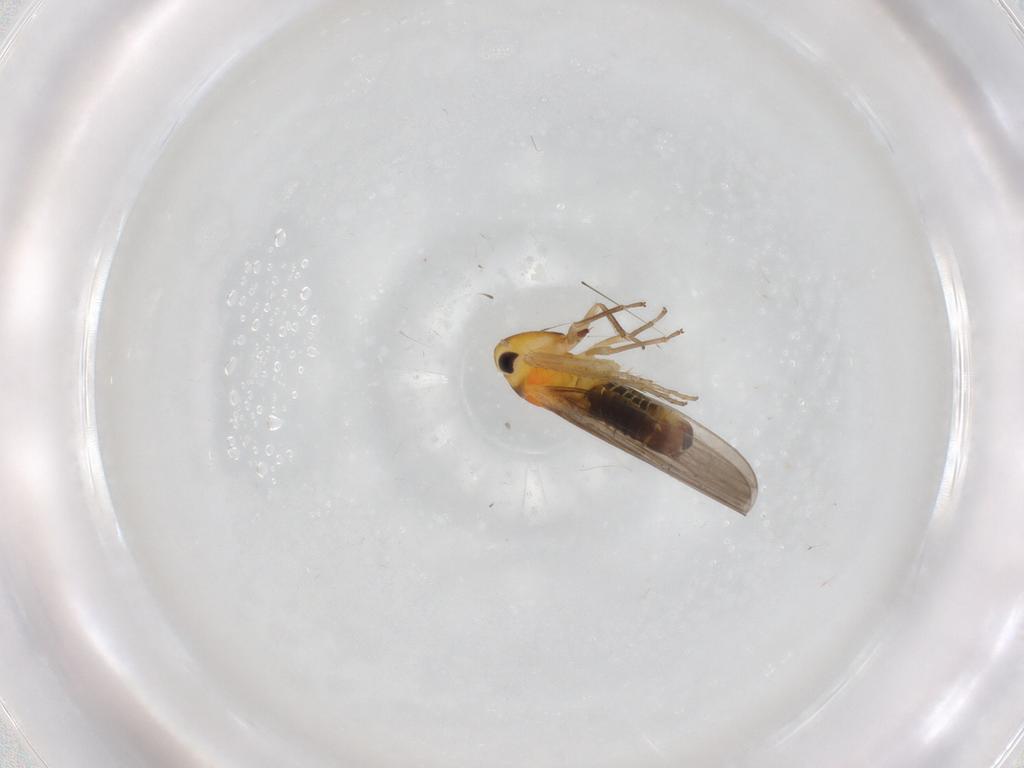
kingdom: Animalia
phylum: Arthropoda
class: Insecta
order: Hemiptera
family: Cicadellidae
